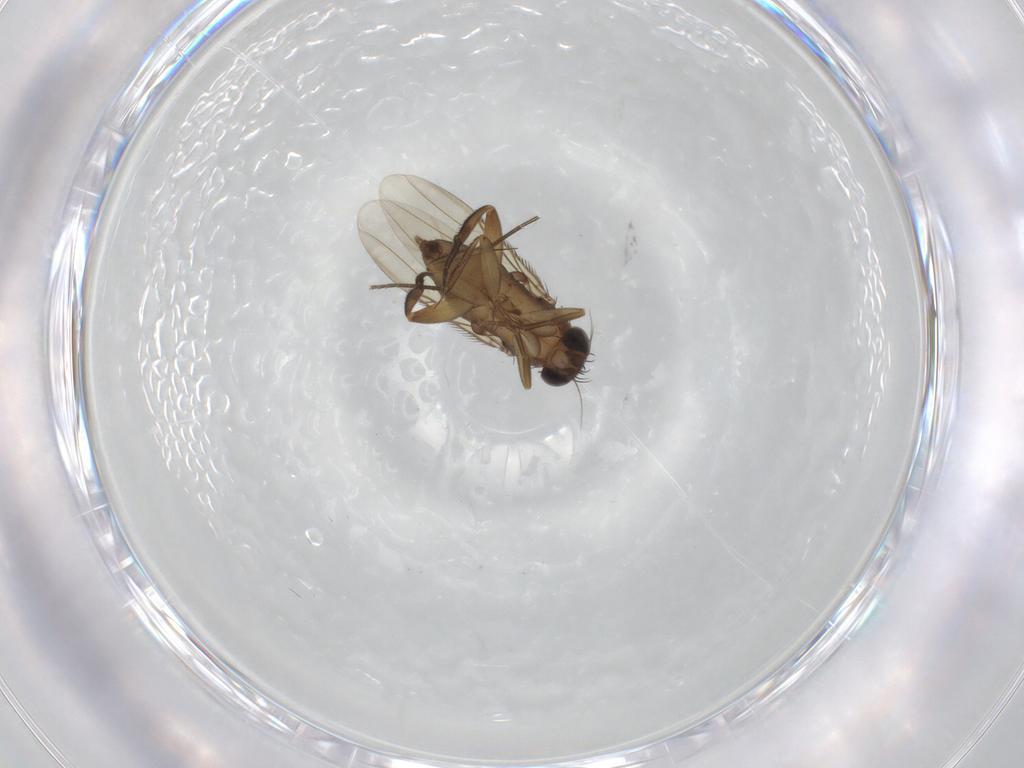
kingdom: Animalia
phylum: Arthropoda
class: Insecta
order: Diptera
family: Phoridae
